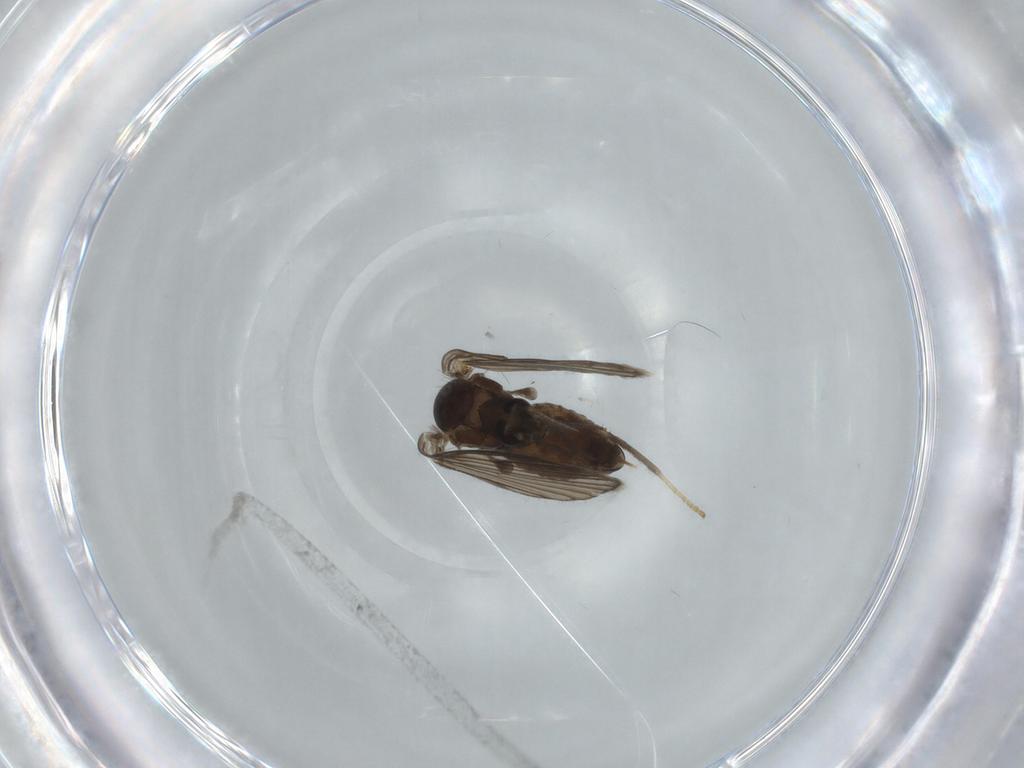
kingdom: Animalia
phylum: Arthropoda
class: Insecta
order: Diptera
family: Psychodidae
